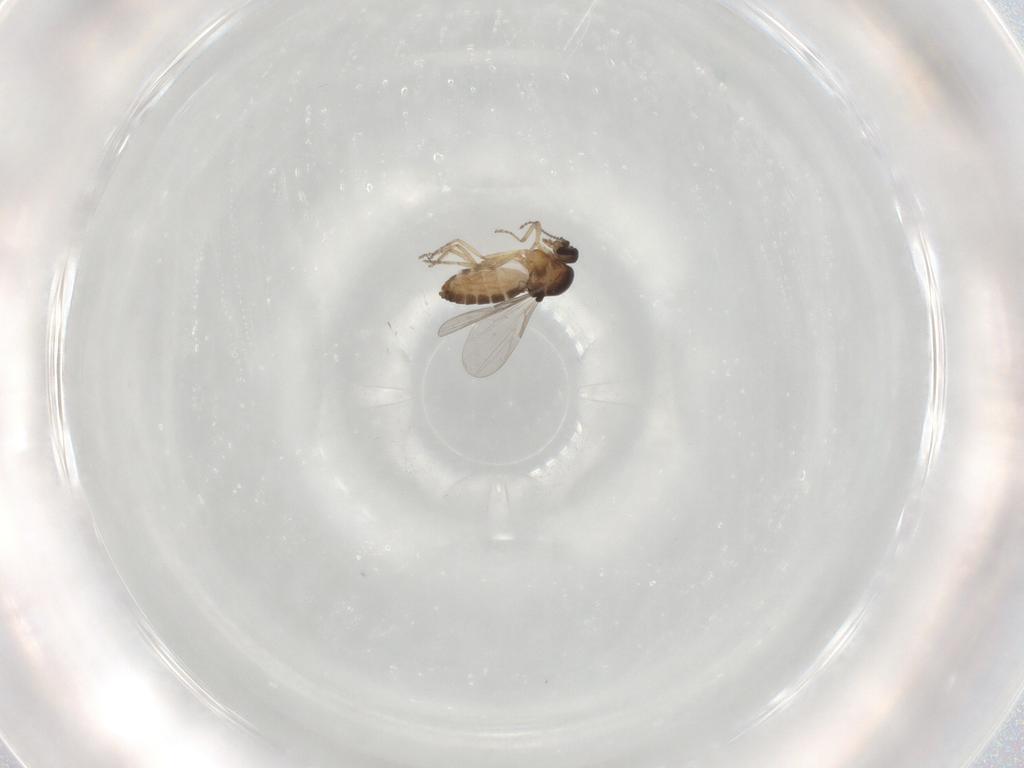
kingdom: Animalia
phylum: Arthropoda
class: Insecta
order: Diptera
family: Ceratopogonidae
